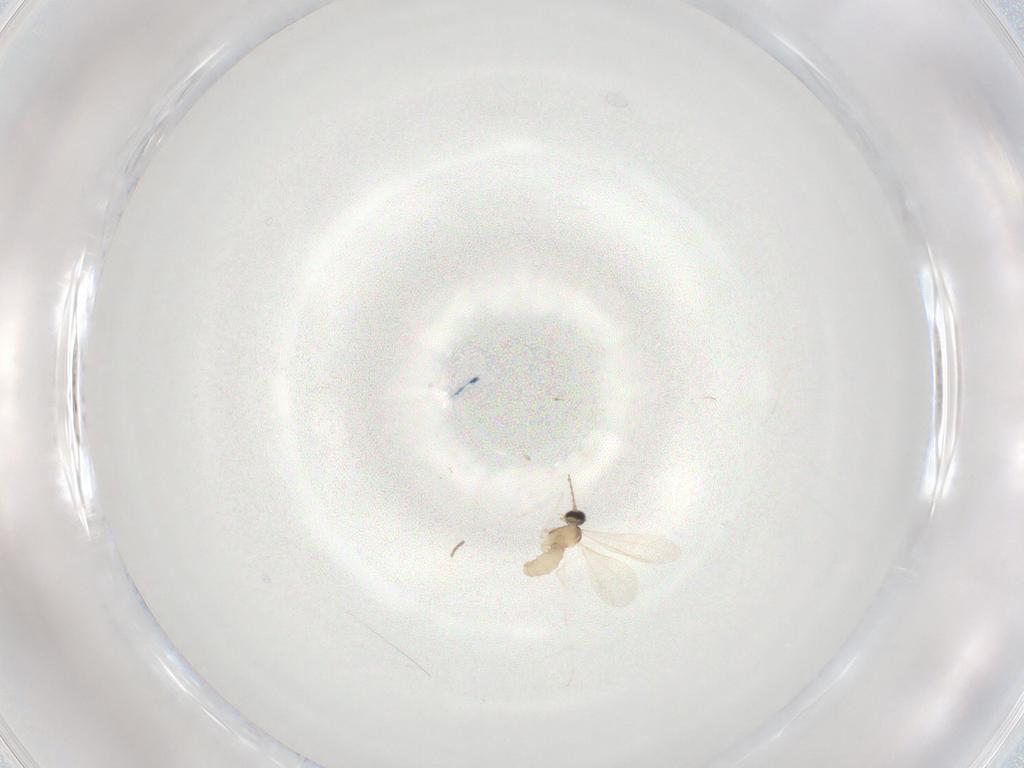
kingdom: Animalia
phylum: Arthropoda
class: Insecta
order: Diptera
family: Cecidomyiidae
